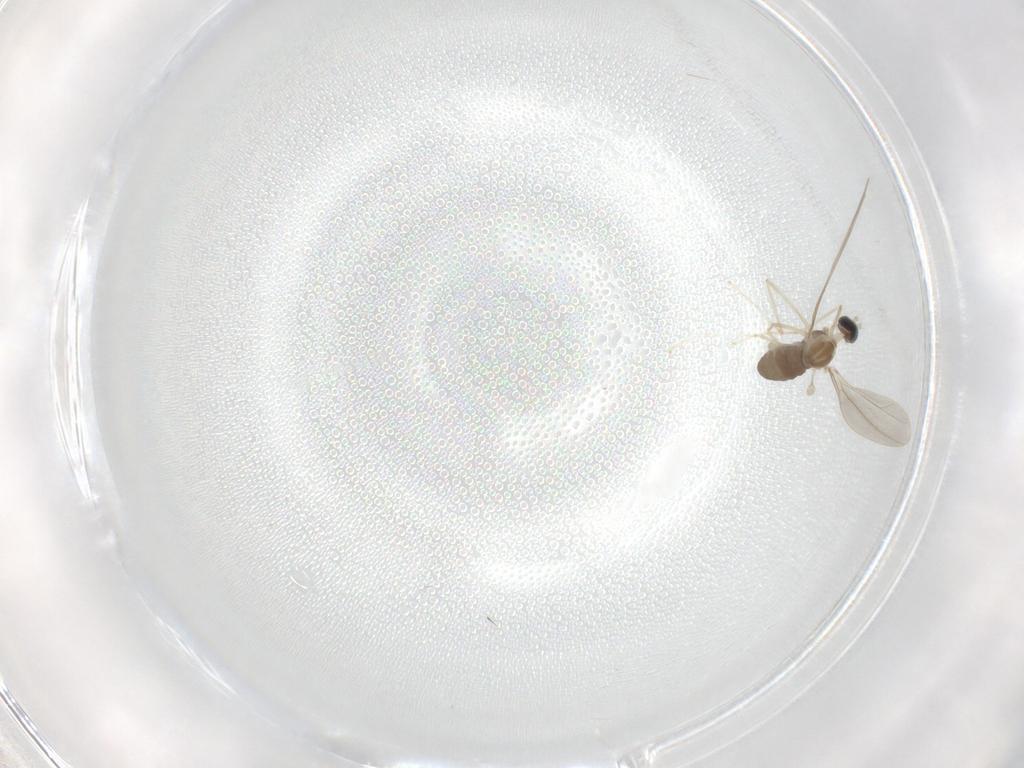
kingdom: Animalia
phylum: Arthropoda
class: Insecta
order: Diptera
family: Cecidomyiidae
